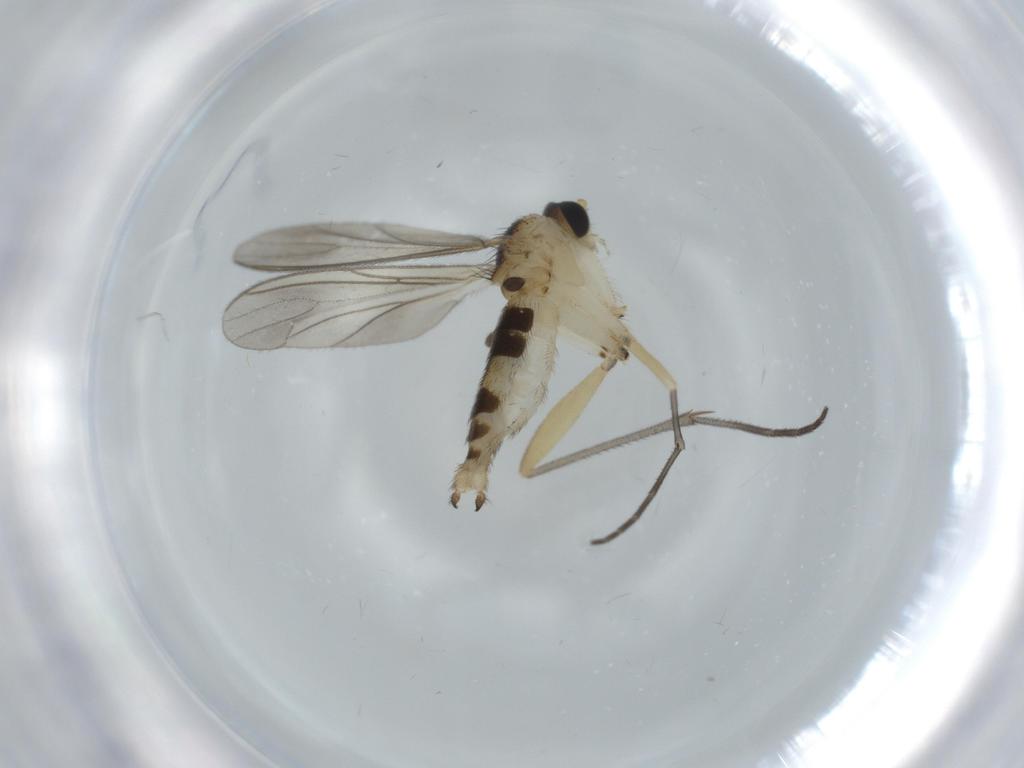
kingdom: Animalia
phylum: Arthropoda
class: Insecta
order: Diptera
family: Sciaridae
